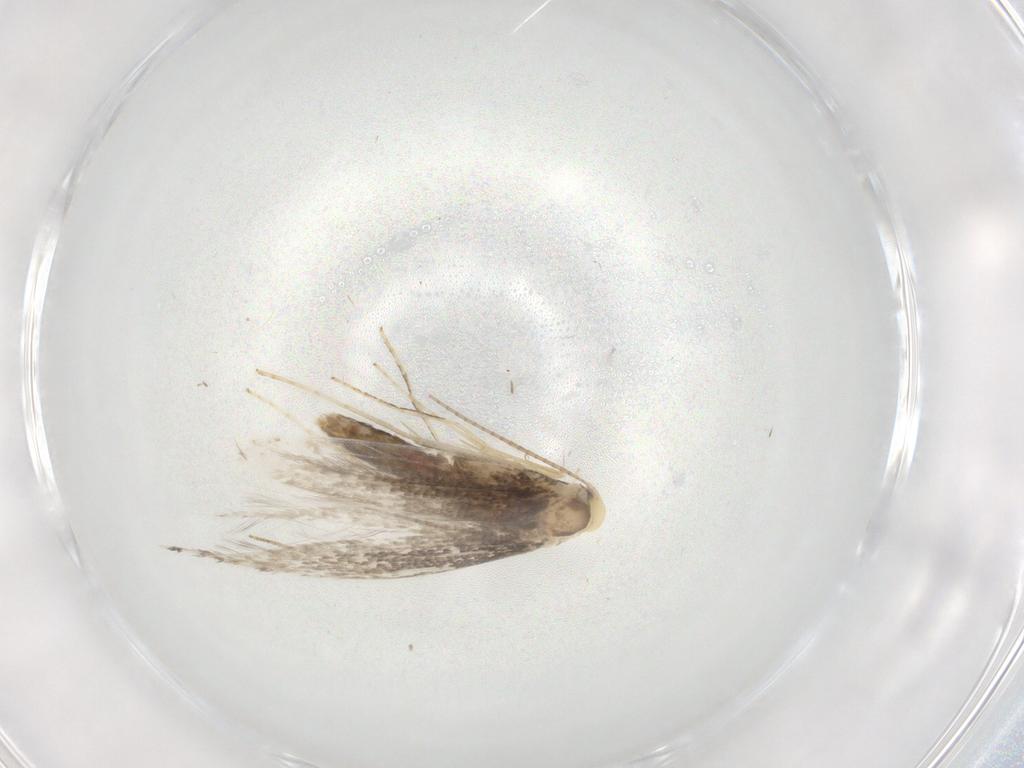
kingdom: Animalia
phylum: Arthropoda
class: Insecta
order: Lepidoptera
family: Gracillariidae
